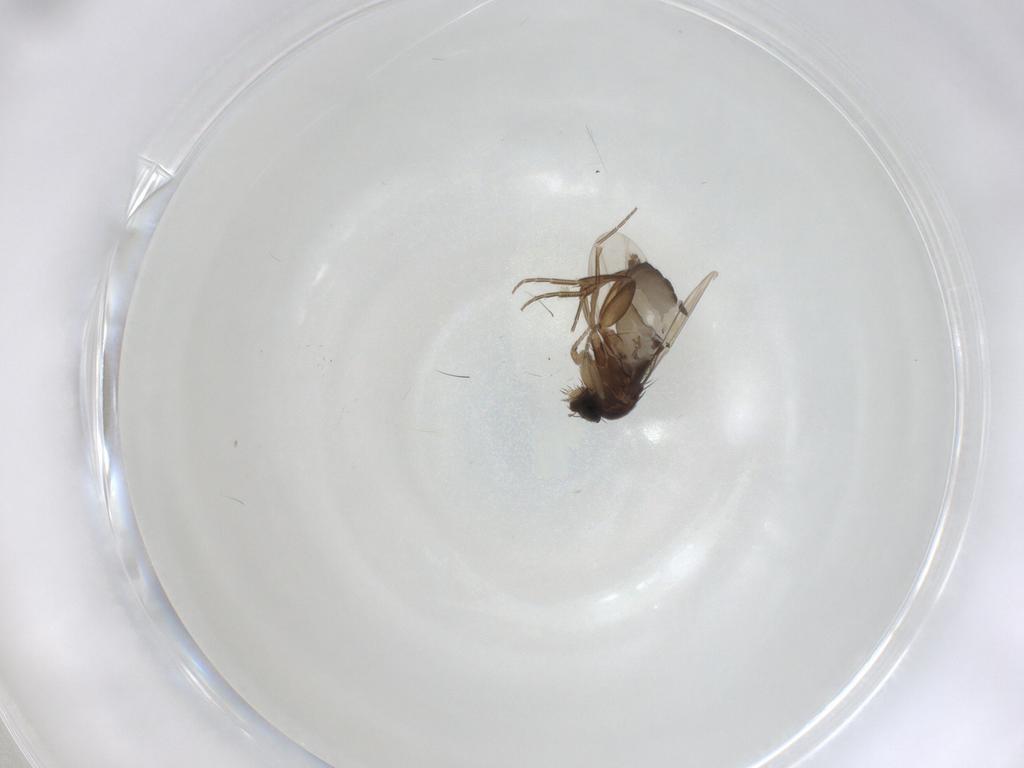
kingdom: Animalia
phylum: Arthropoda
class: Insecta
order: Diptera
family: Phoridae
